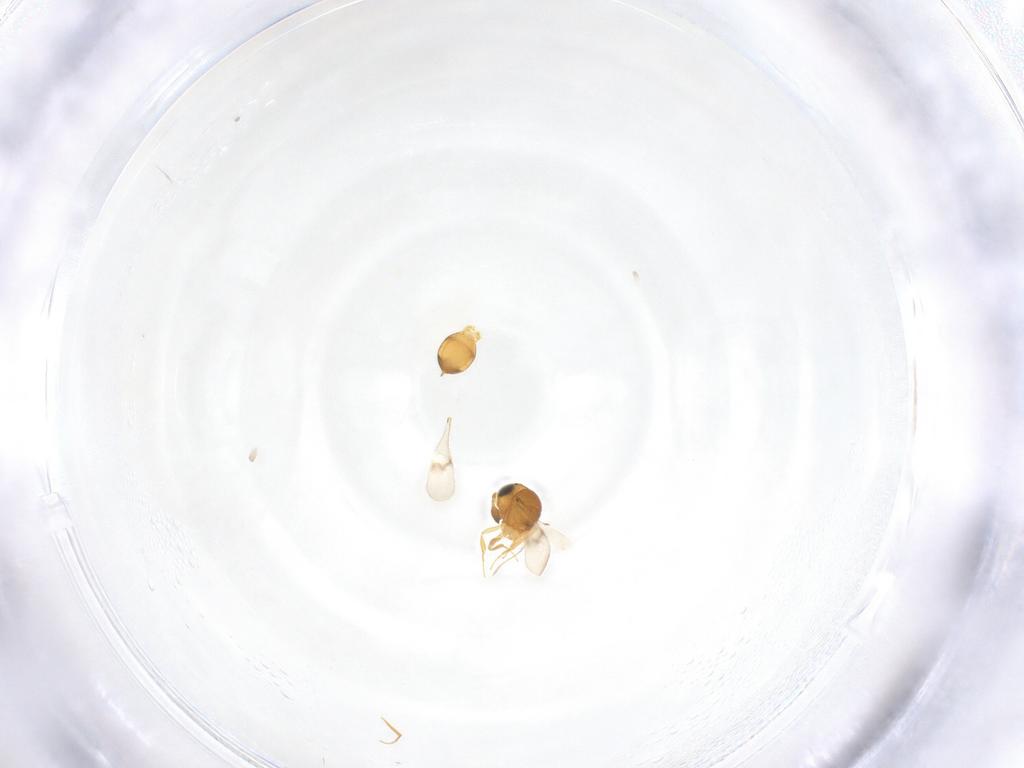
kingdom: Animalia
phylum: Arthropoda
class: Insecta
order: Hymenoptera
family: Scelionidae
